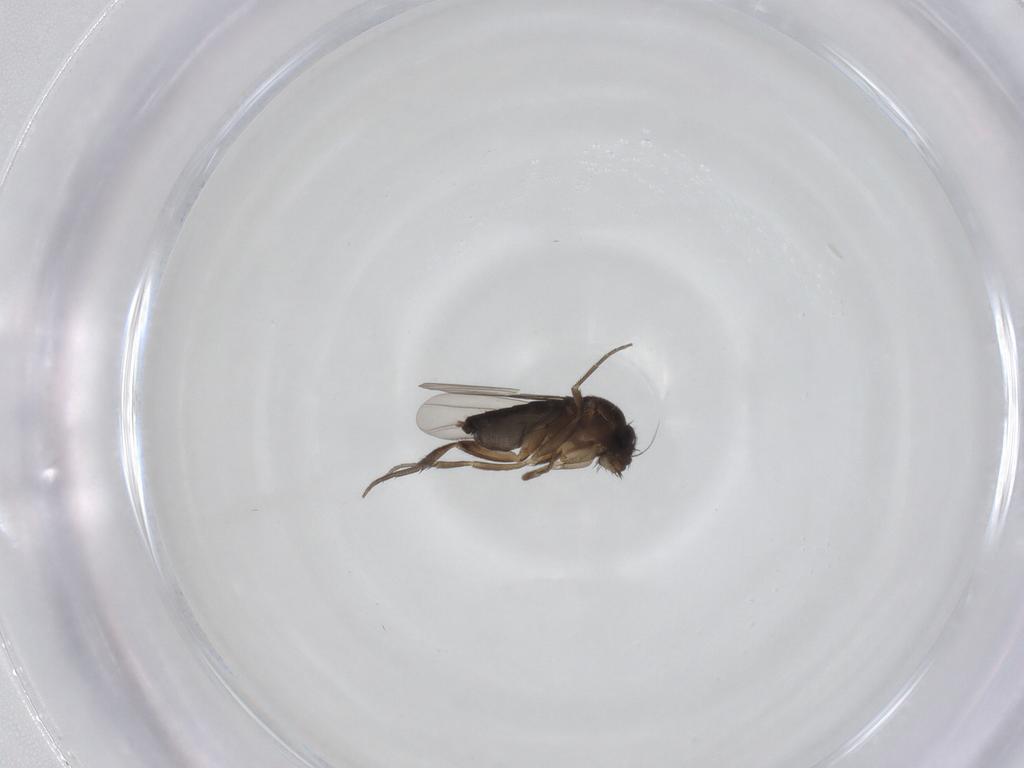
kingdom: Animalia
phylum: Arthropoda
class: Insecta
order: Diptera
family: Phoridae
